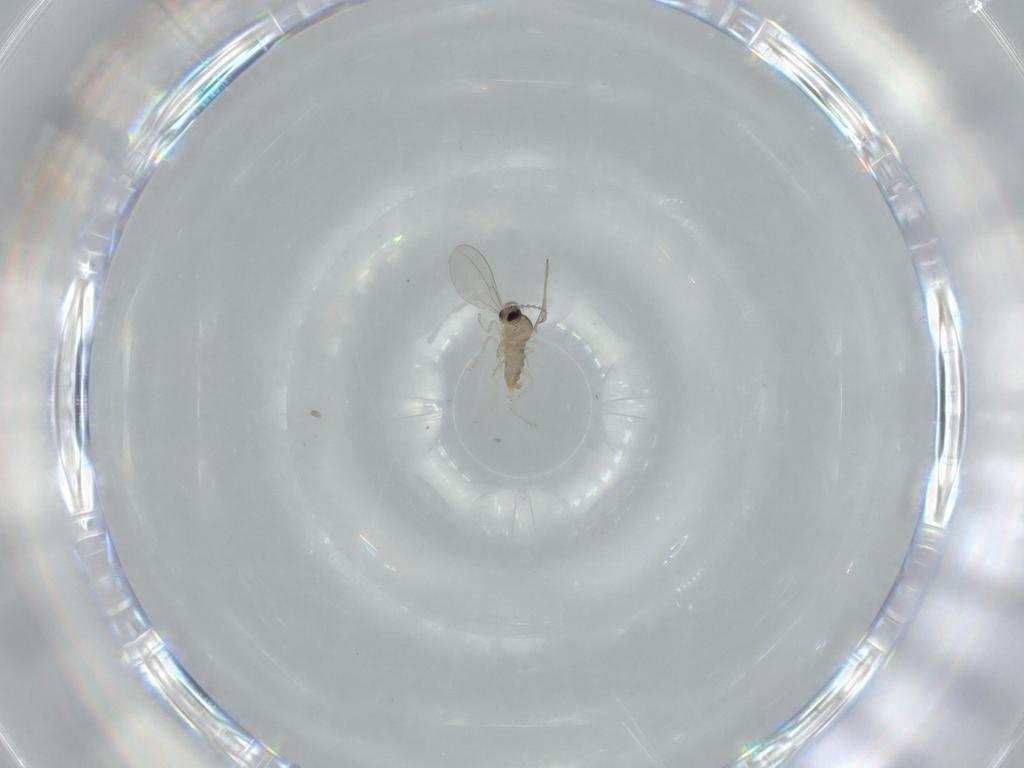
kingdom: Animalia
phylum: Arthropoda
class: Insecta
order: Diptera
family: Cecidomyiidae
